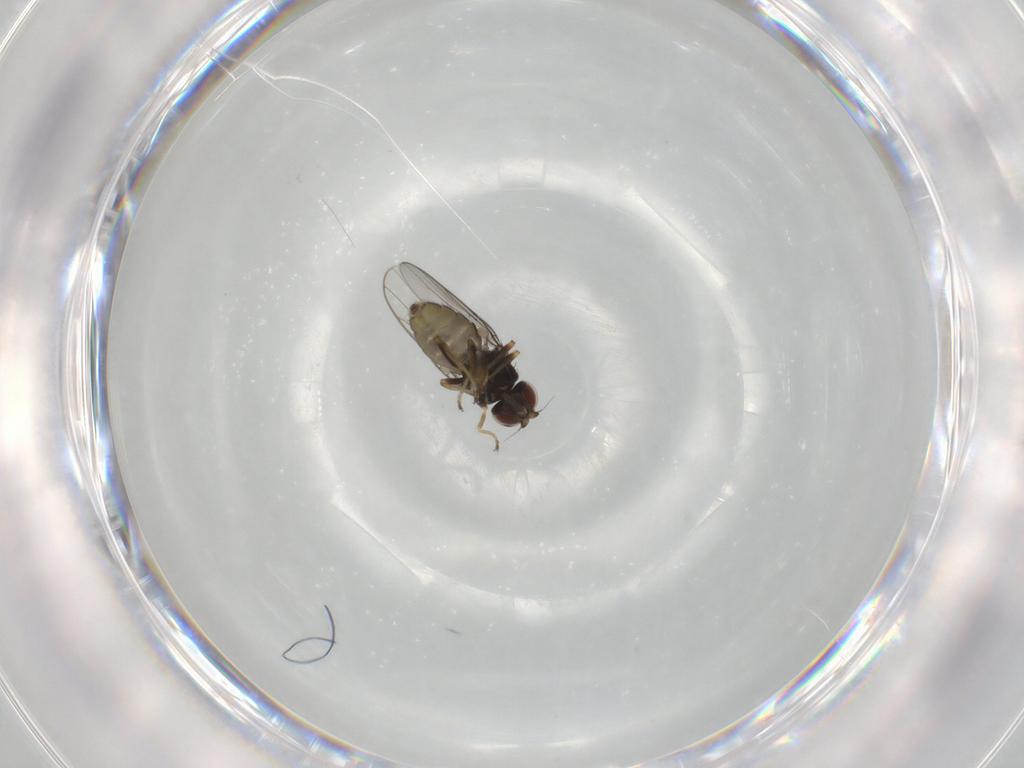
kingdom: Animalia
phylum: Arthropoda
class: Insecta
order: Diptera
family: Chloropidae
